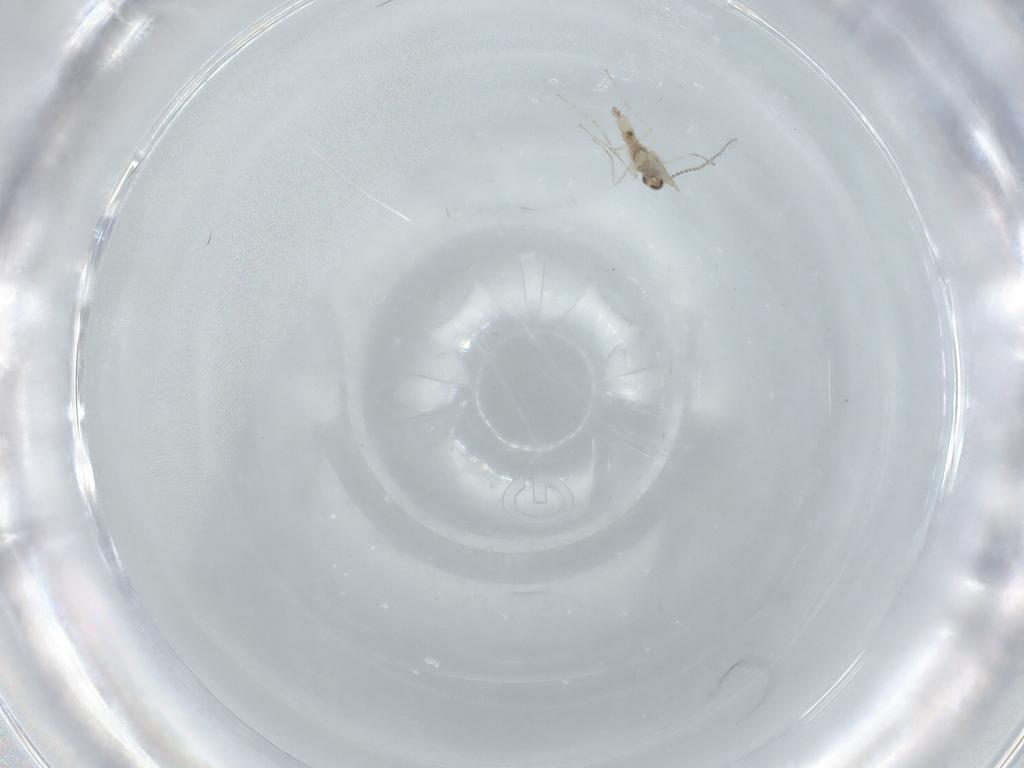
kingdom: Animalia
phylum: Arthropoda
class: Insecta
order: Diptera
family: Cecidomyiidae
